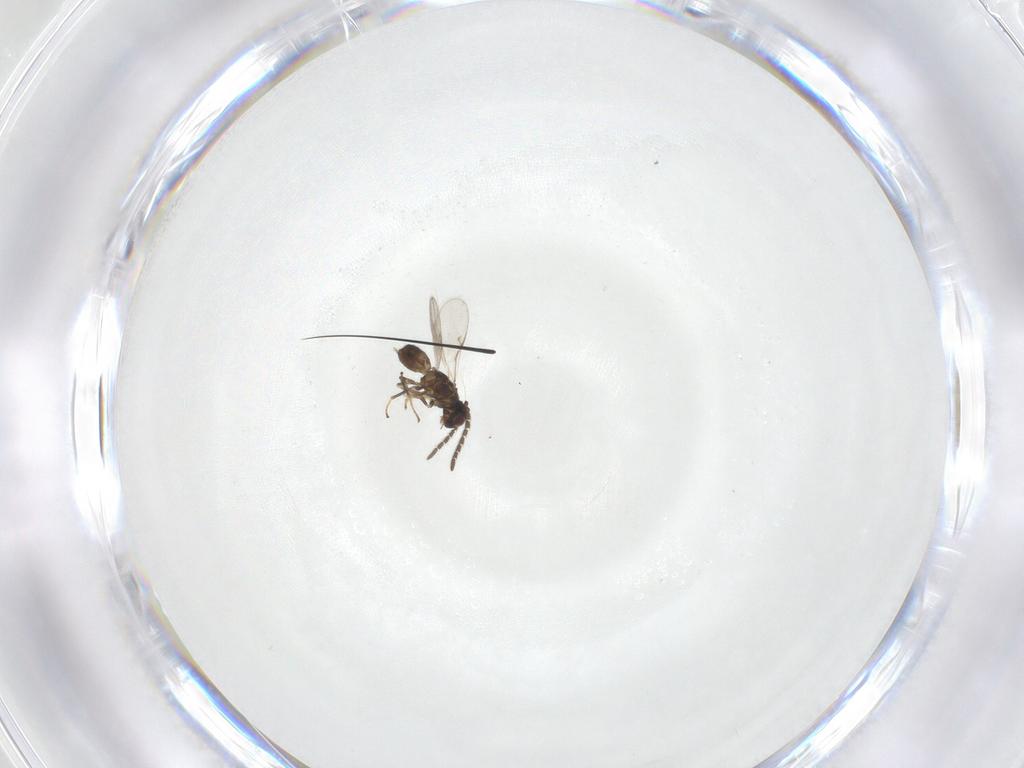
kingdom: Animalia
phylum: Arthropoda
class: Insecta
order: Hymenoptera
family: Encyrtidae
